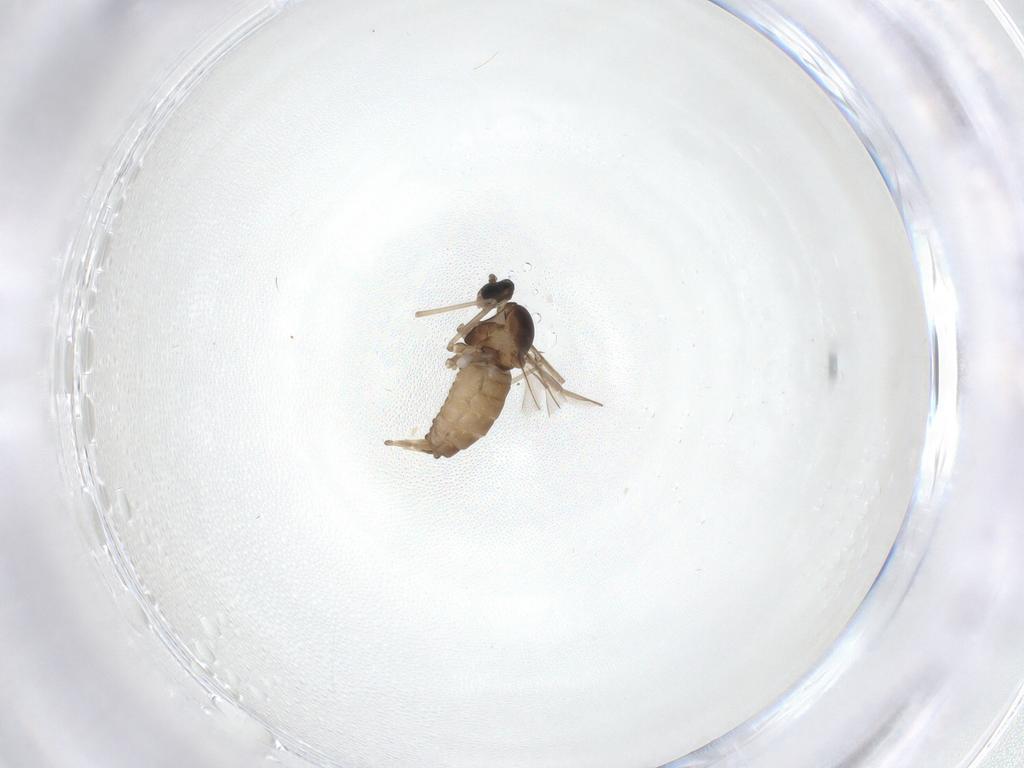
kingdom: Animalia
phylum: Arthropoda
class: Insecta
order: Diptera
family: Cecidomyiidae
